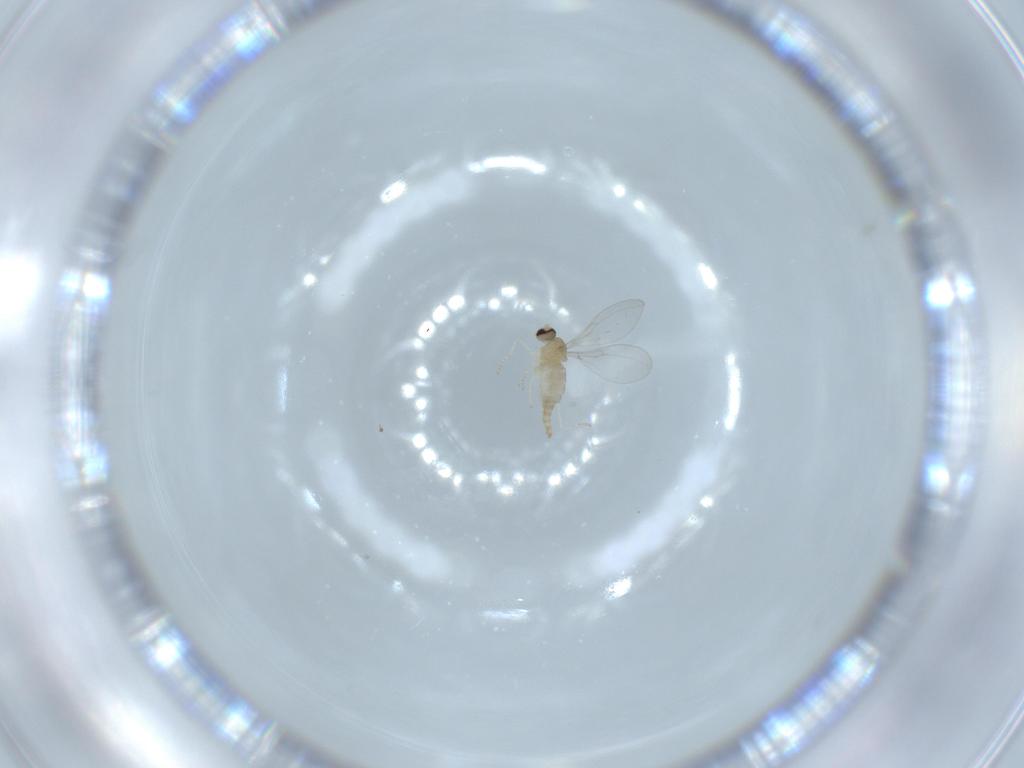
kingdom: Animalia
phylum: Arthropoda
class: Insecta
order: Diptera
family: Cecidomyiidae
